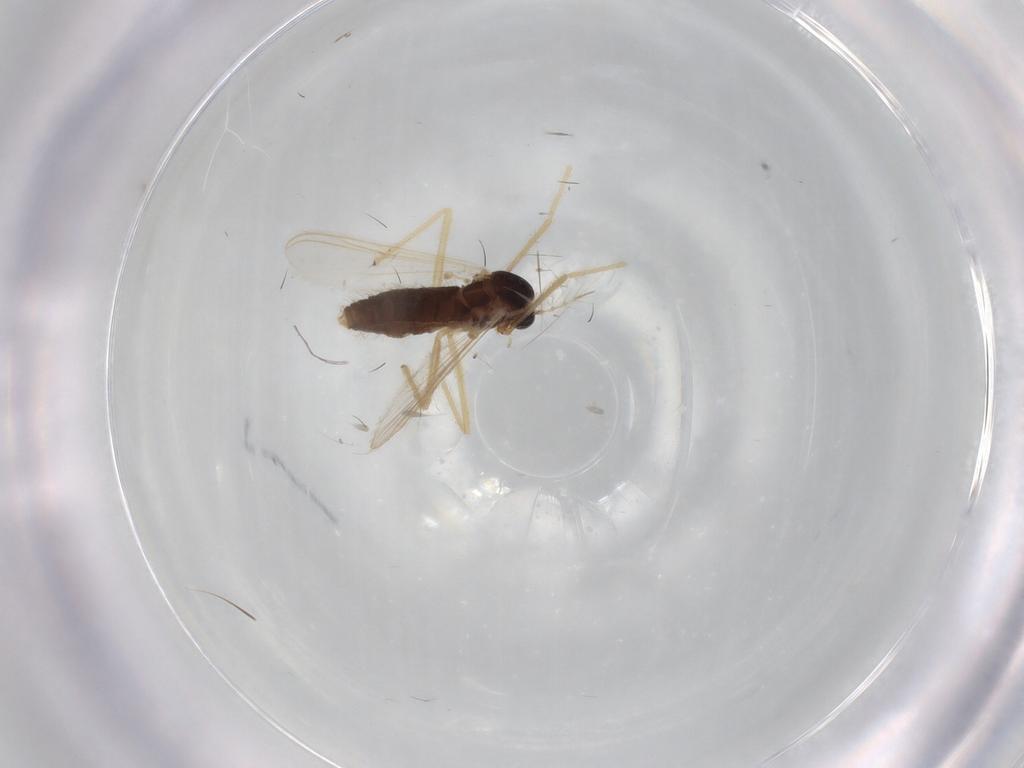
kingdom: Animalia
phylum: Arthropoda
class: Insecta
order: Diptera
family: Chironomidae
